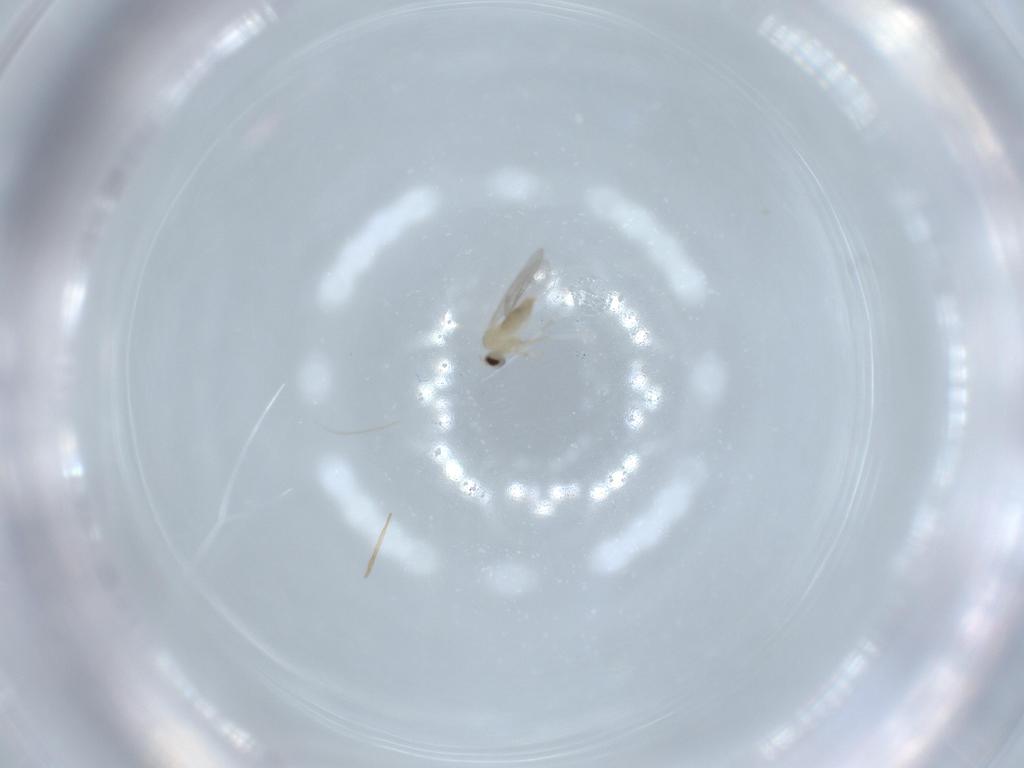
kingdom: Animalia
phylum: Arthropoda
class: Insecta
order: Diptera
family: Cecidomyiidae
